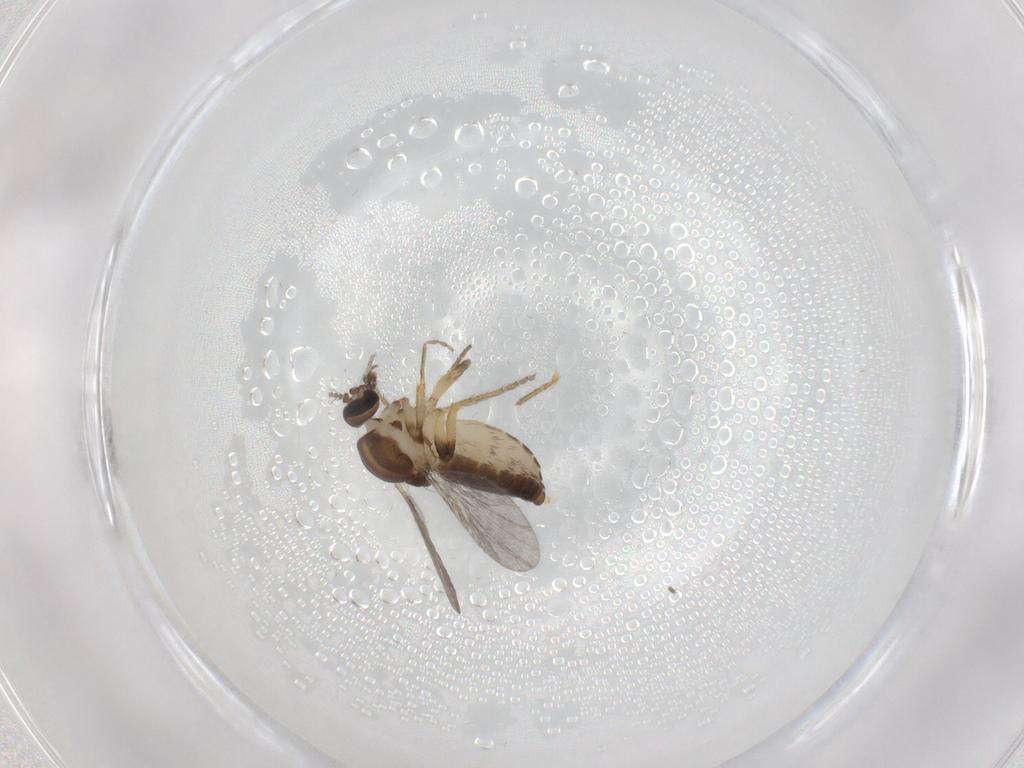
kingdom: Animalia
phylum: Arthropoda
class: Insecta
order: Diptera
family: Ceratopogonidae
